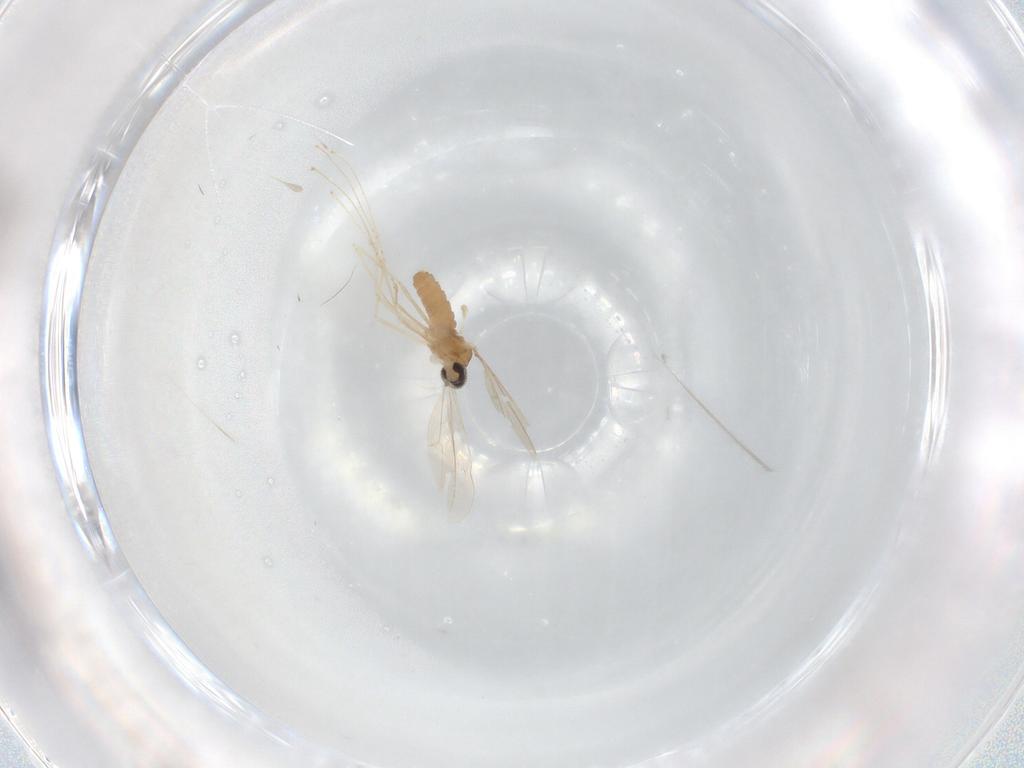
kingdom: Animalia
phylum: Arthropoda
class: Insecta
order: Diptera
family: Cecidomyiidae
